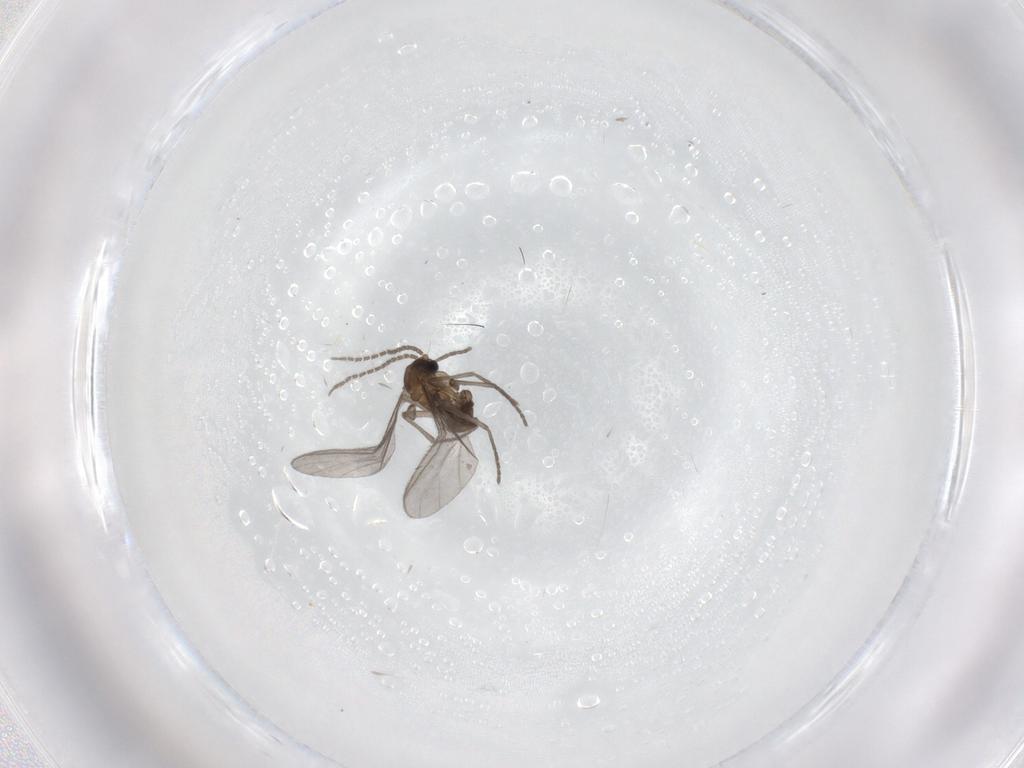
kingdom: Animalia
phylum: Arthropoda
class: Insecta
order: Diptera
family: Sciaridae
